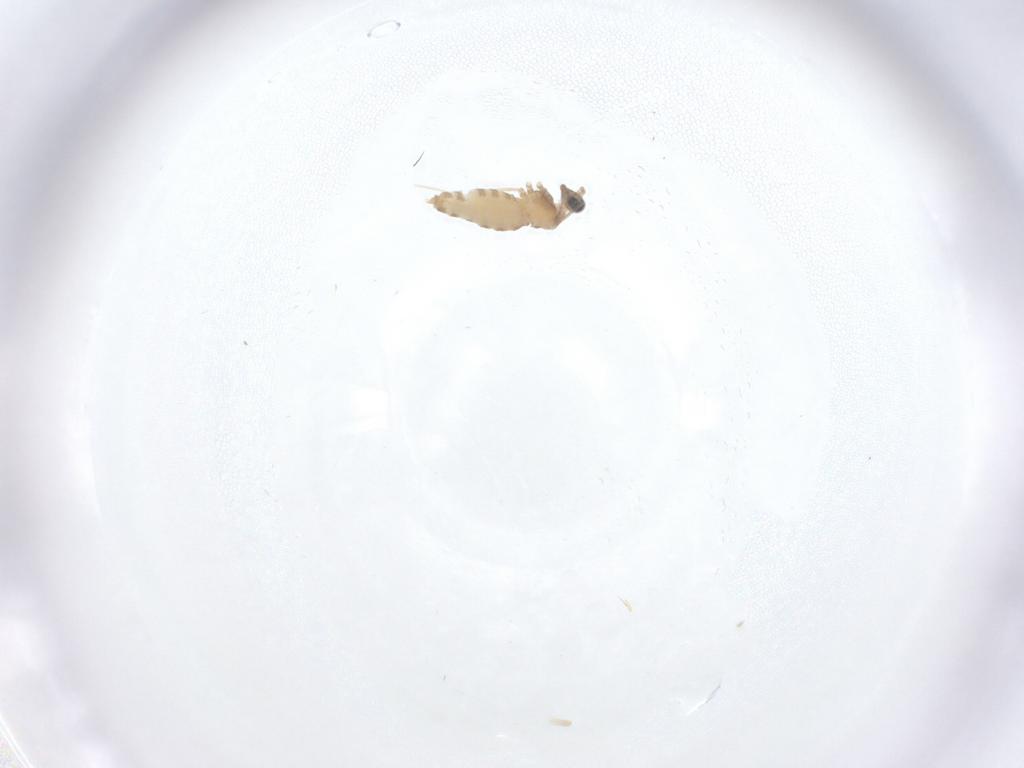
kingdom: Animalia
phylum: Arthropoda
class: Insecta
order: Diptera
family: Cecidomyiidae
